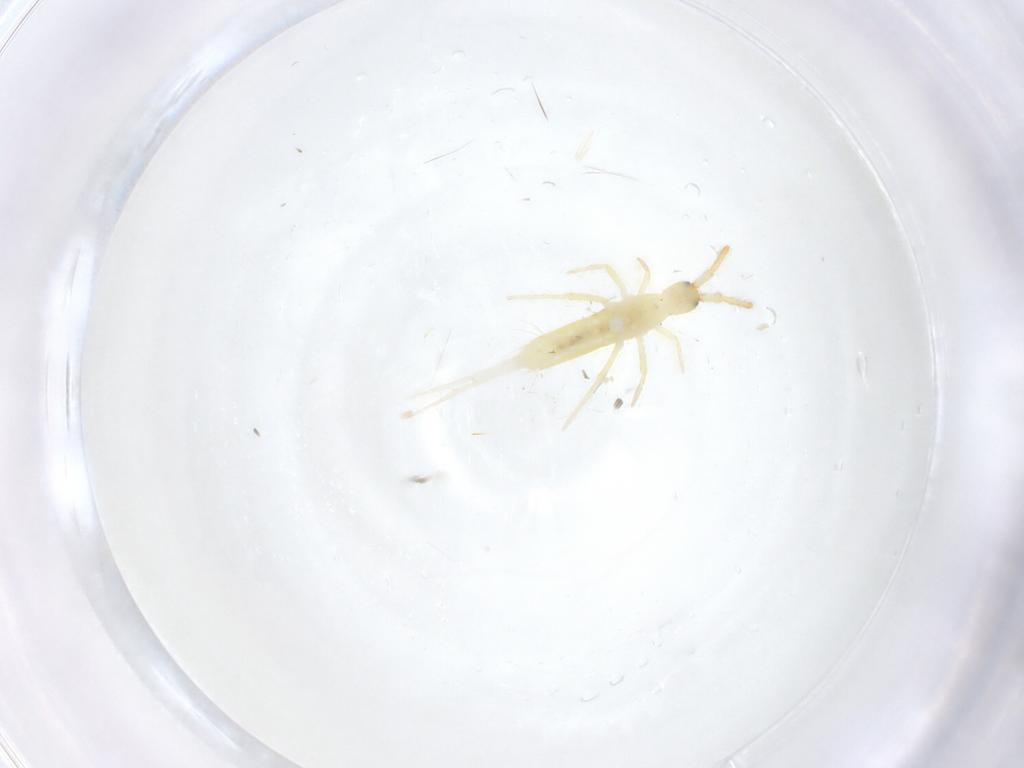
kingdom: Animalia
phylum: Arthropoda
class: Collembola
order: Entomobryomorpha
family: Entomobryidae
